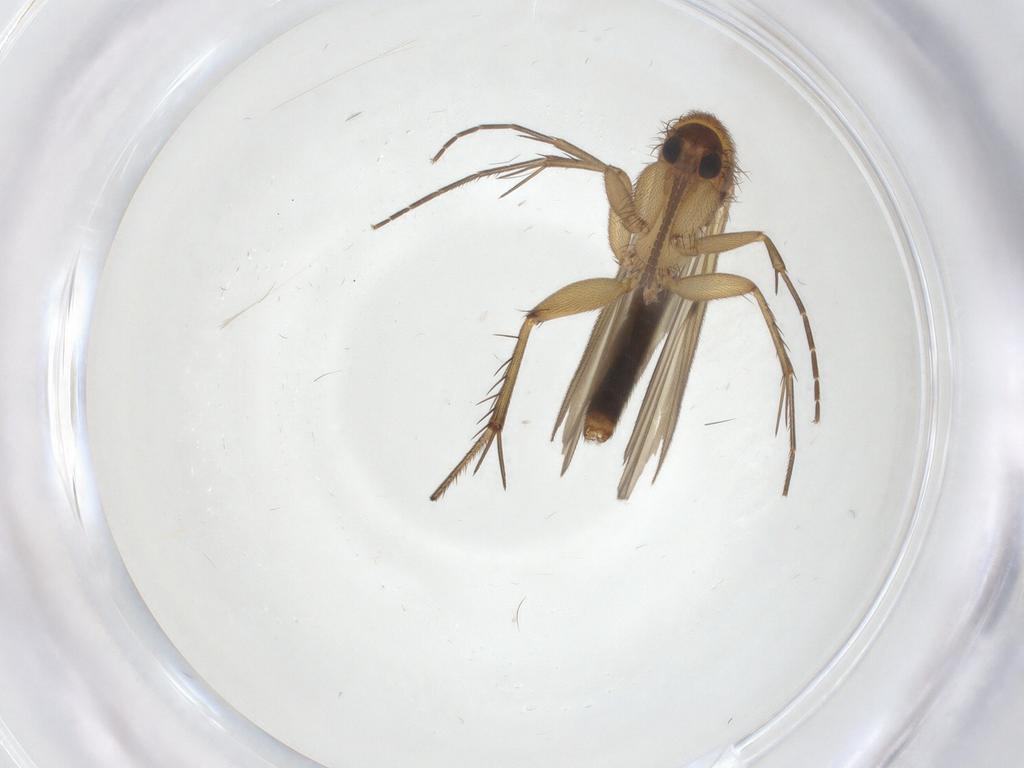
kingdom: Animalia
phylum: Arthropoda
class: Insecta
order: Diptera
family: Mycetophilidae
